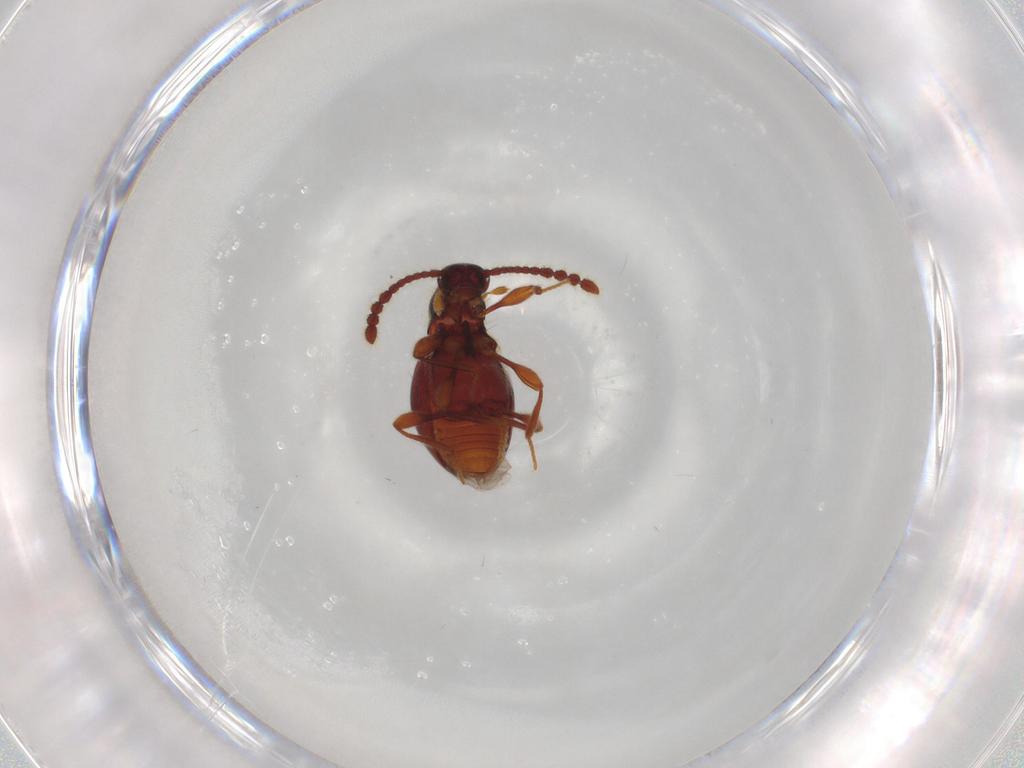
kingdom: Animalia
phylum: Arthropoda
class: Insecta
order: Coleoptera
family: Staphylinidae
